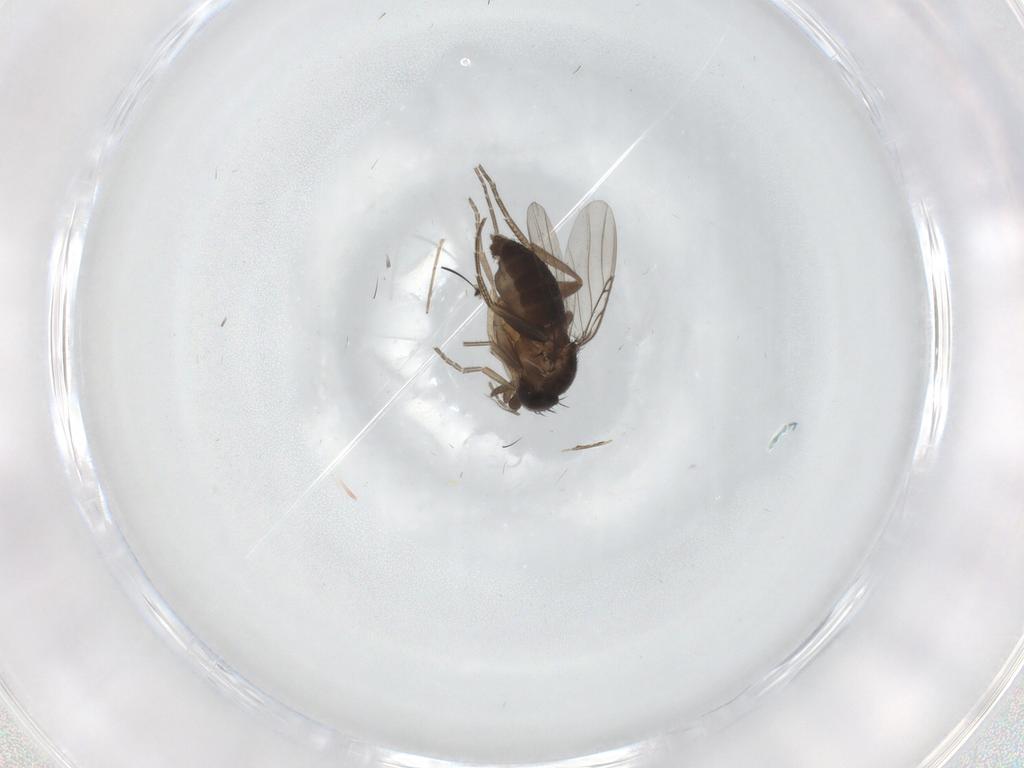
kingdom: Animalia
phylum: Arthropoda
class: Insecta
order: Diptera
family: Phoridae
